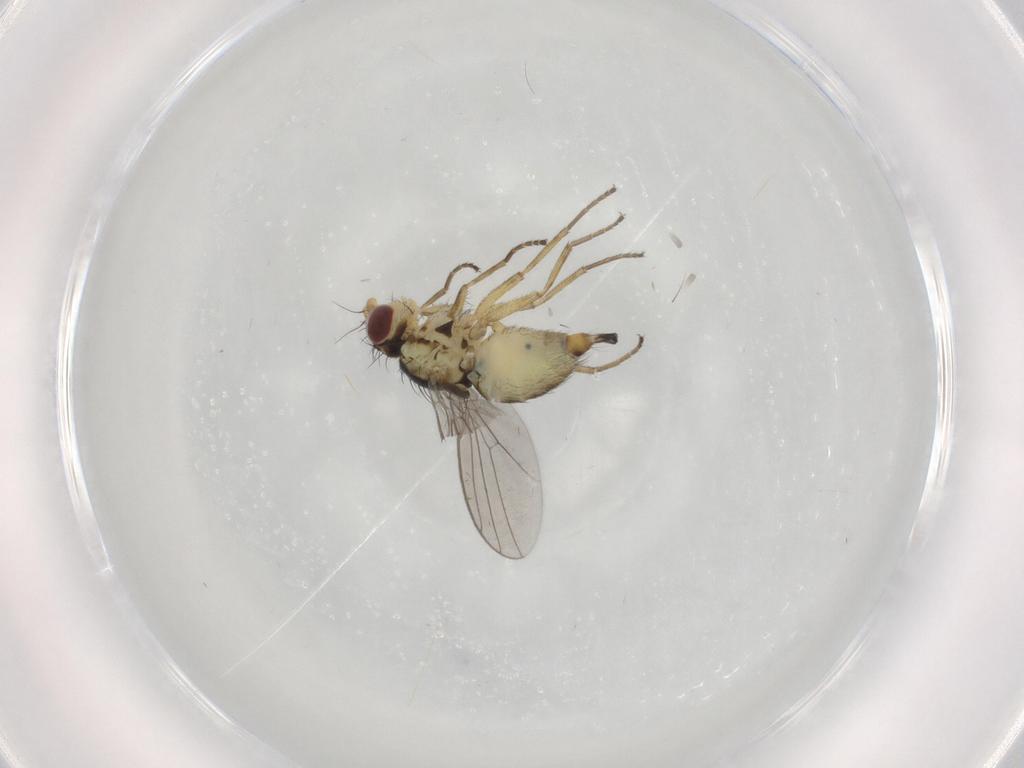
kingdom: Animalia
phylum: Arthropoda
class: Insecta
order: Diptera
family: Agromyzidae
